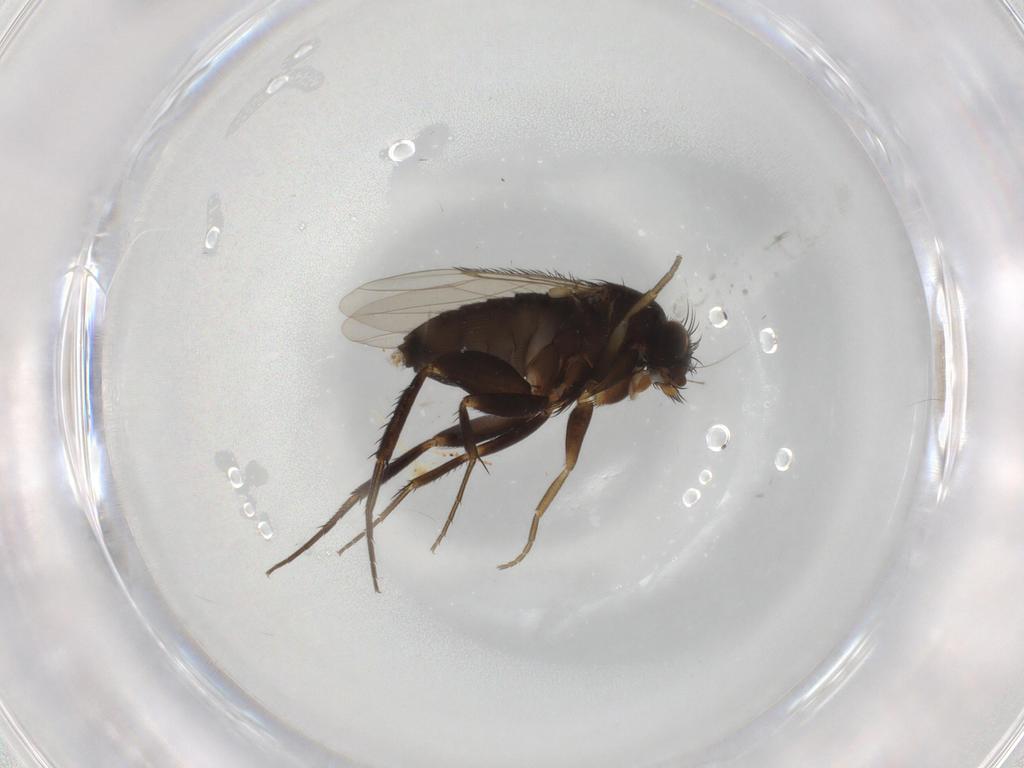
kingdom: Animalia
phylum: Arthropoda
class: Insecta
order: Diptera
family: Phoridae
